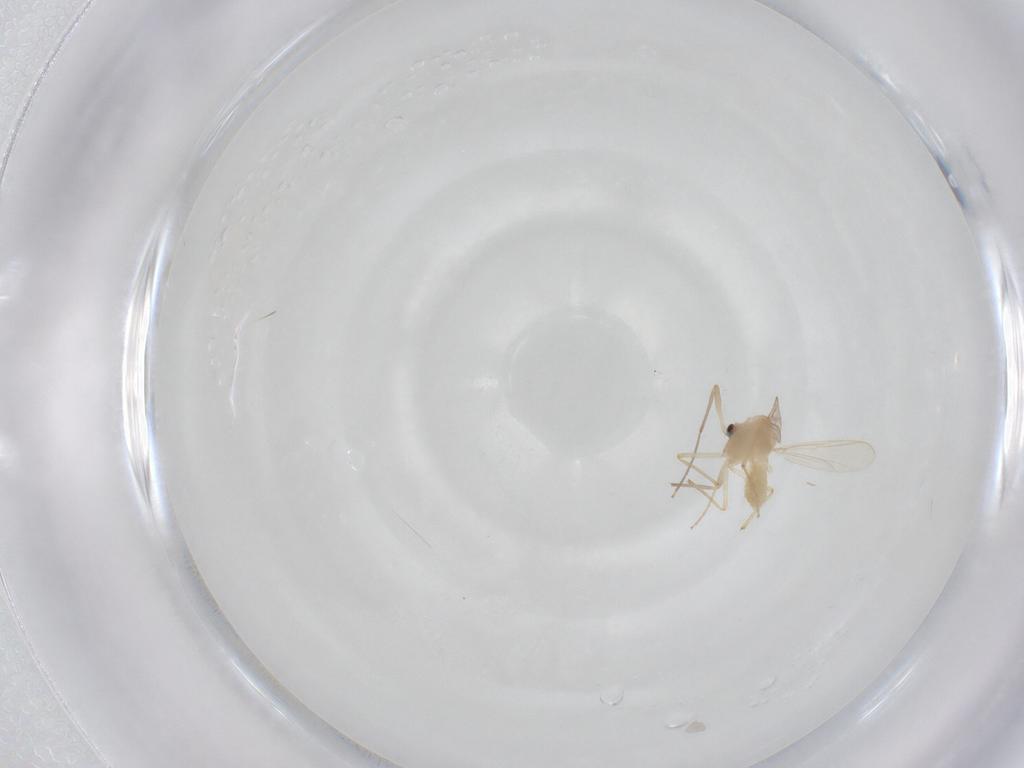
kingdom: Animalia
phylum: Arthropoda
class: Insecta
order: Diptera
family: Chironomidae
